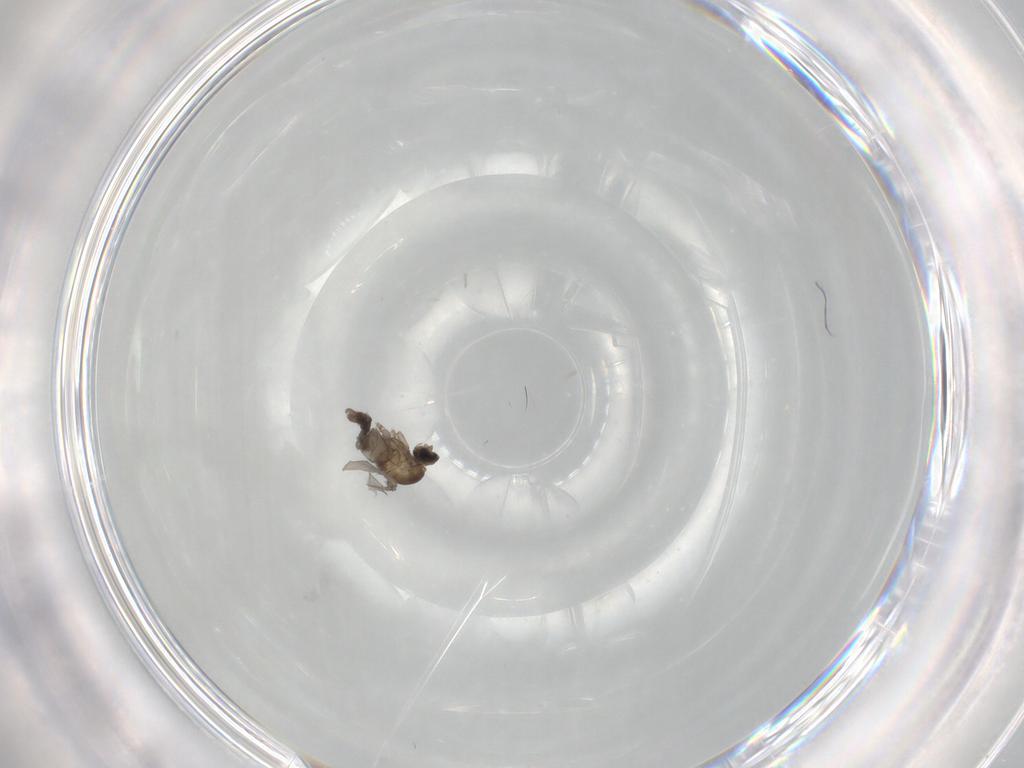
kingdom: Animalia
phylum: Arthropoda
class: Insecta
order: Diptera
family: Cecidomyiidae
